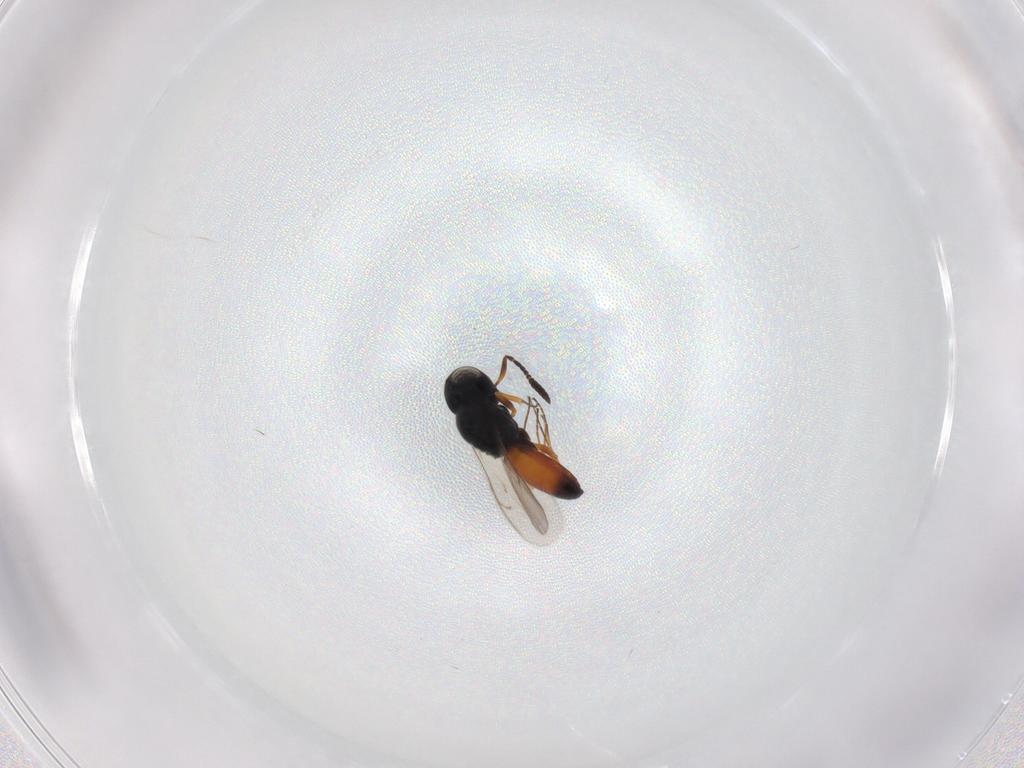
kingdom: Animalia
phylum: Arthropoda
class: Insecta
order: Hymenoptera
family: Scelionidae
